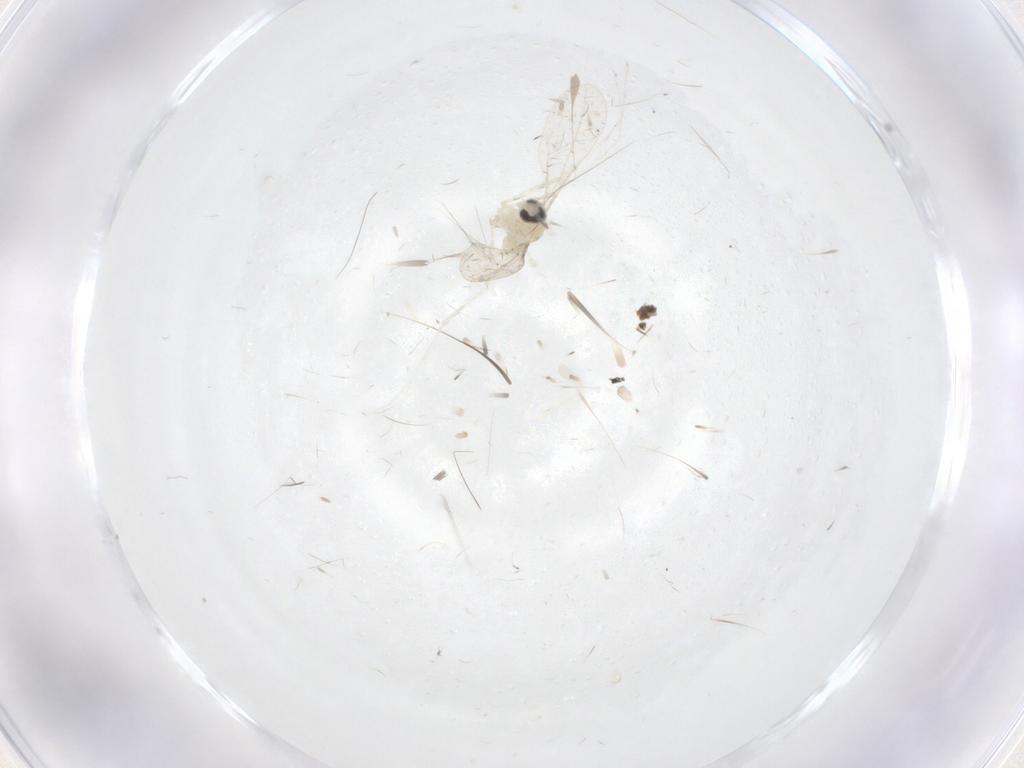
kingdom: Animalia
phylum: Arthropoda
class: Insecta
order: Diptera
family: Cecidomyiidae
